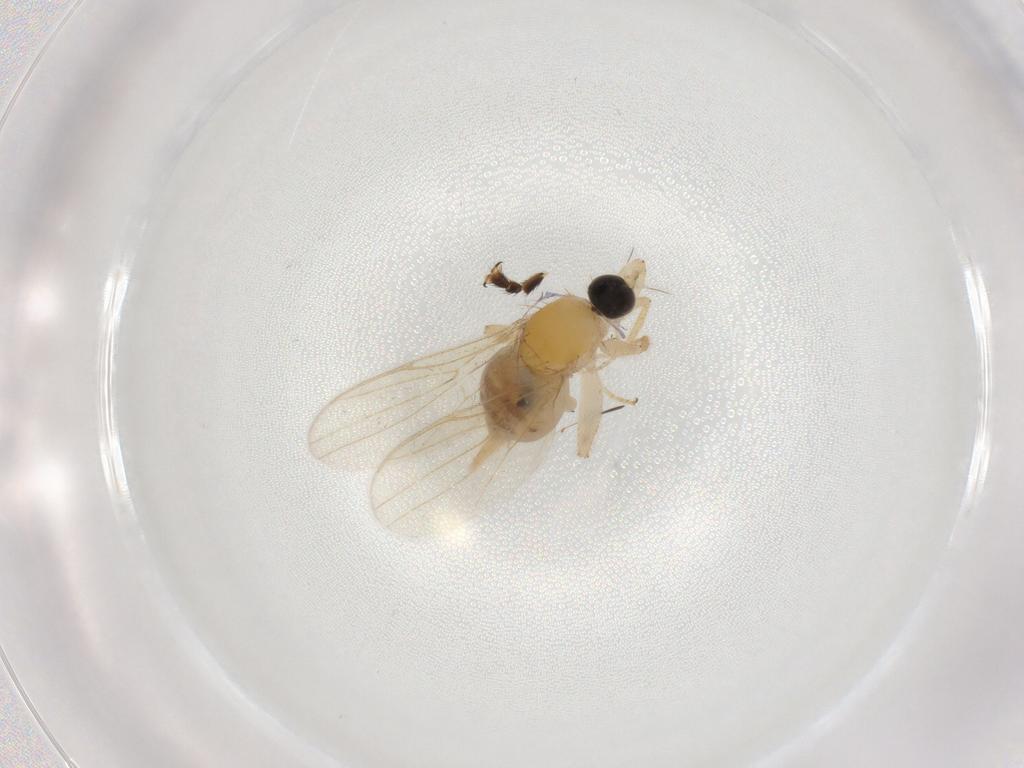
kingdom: Animalia
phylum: Arthropoda
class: Insecta
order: Diptera
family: Syrphidae
